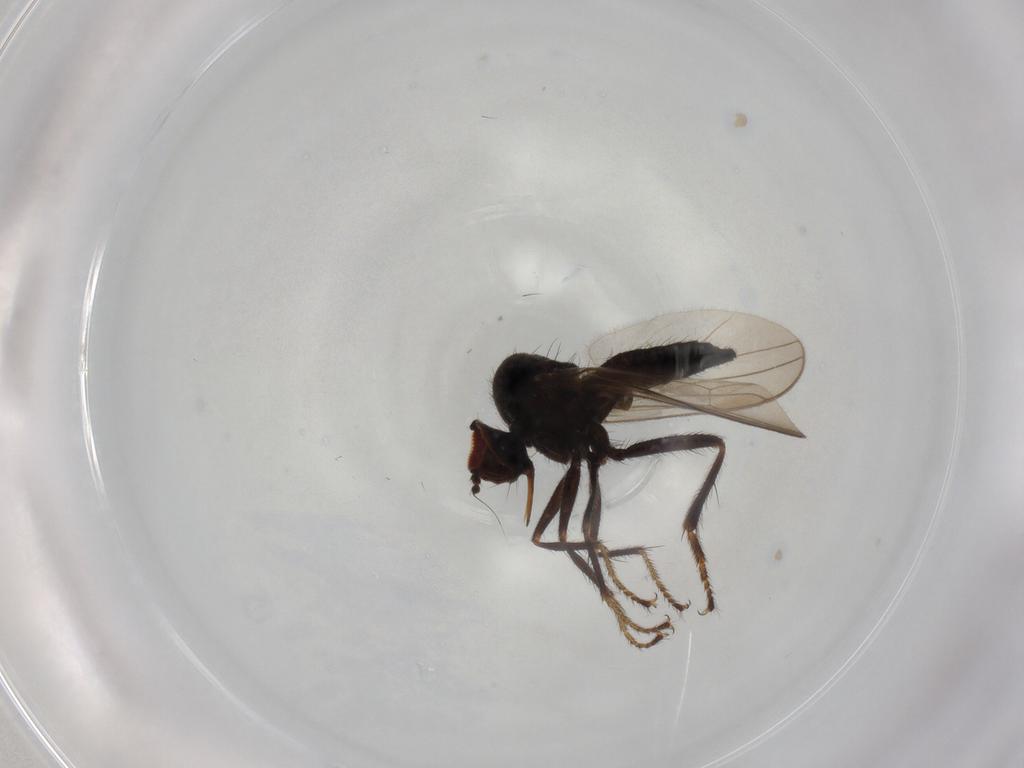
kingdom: Animalia
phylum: Arthropoda
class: Insecta
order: Diptera
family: Hybotidae
